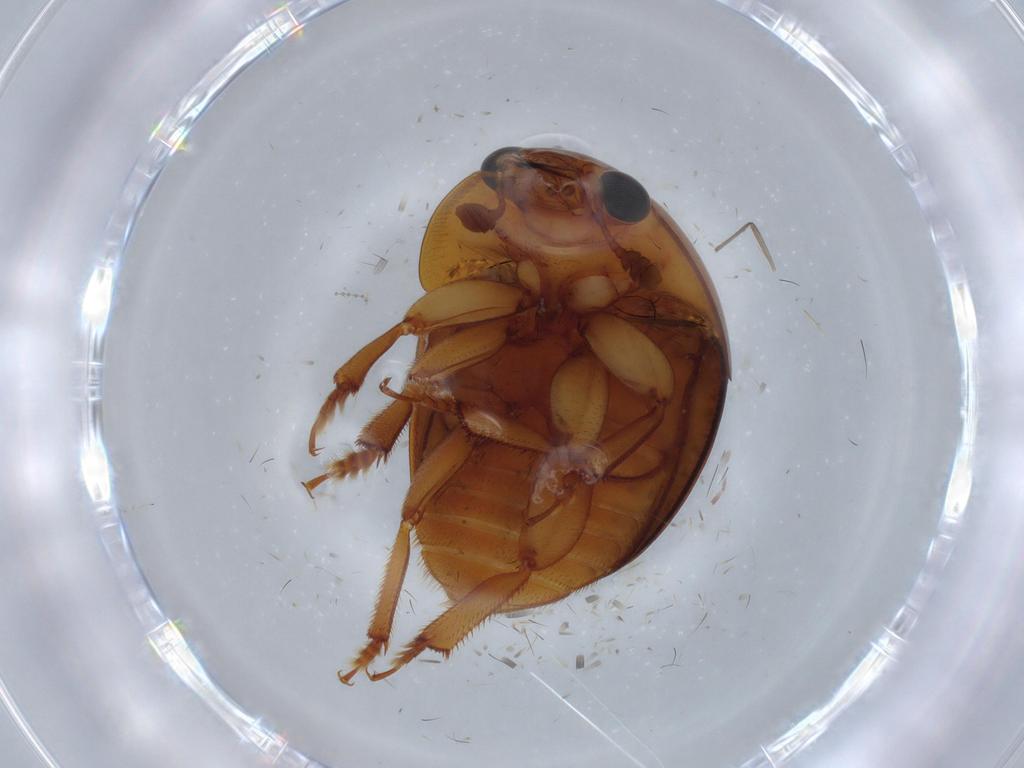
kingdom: Animalia
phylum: Arthropoda
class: Insecta
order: Coleoptera
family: Nitidulidae
